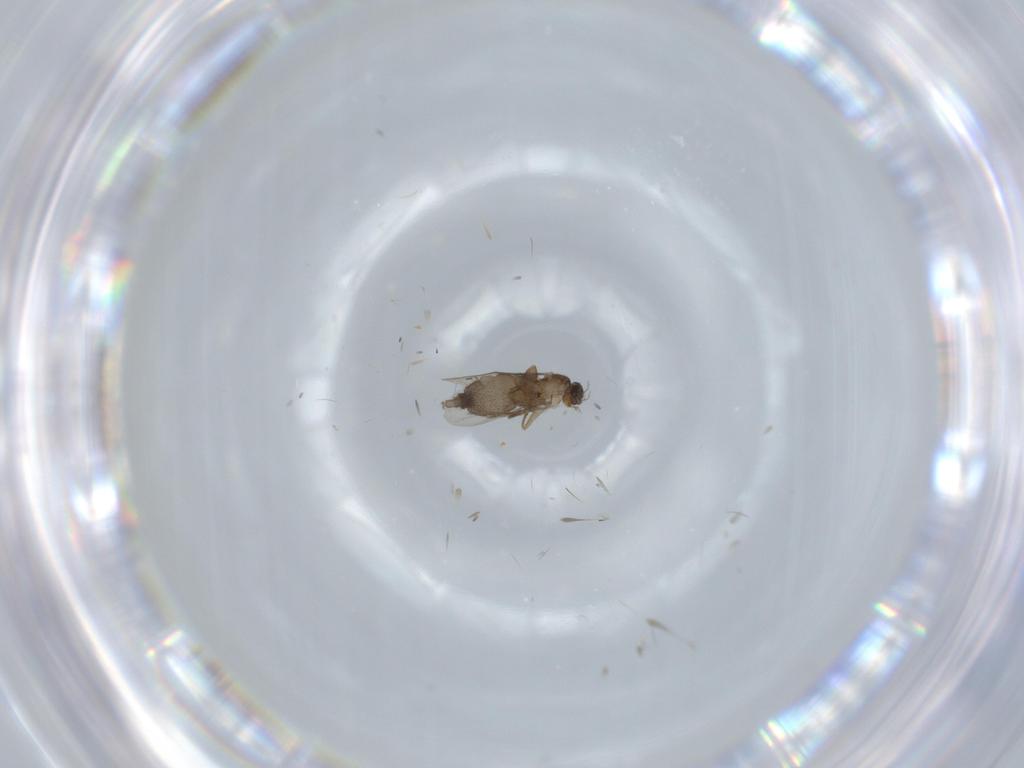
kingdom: Animalia
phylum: Arthropoda
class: Insecta
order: Diptera
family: Phoridae
